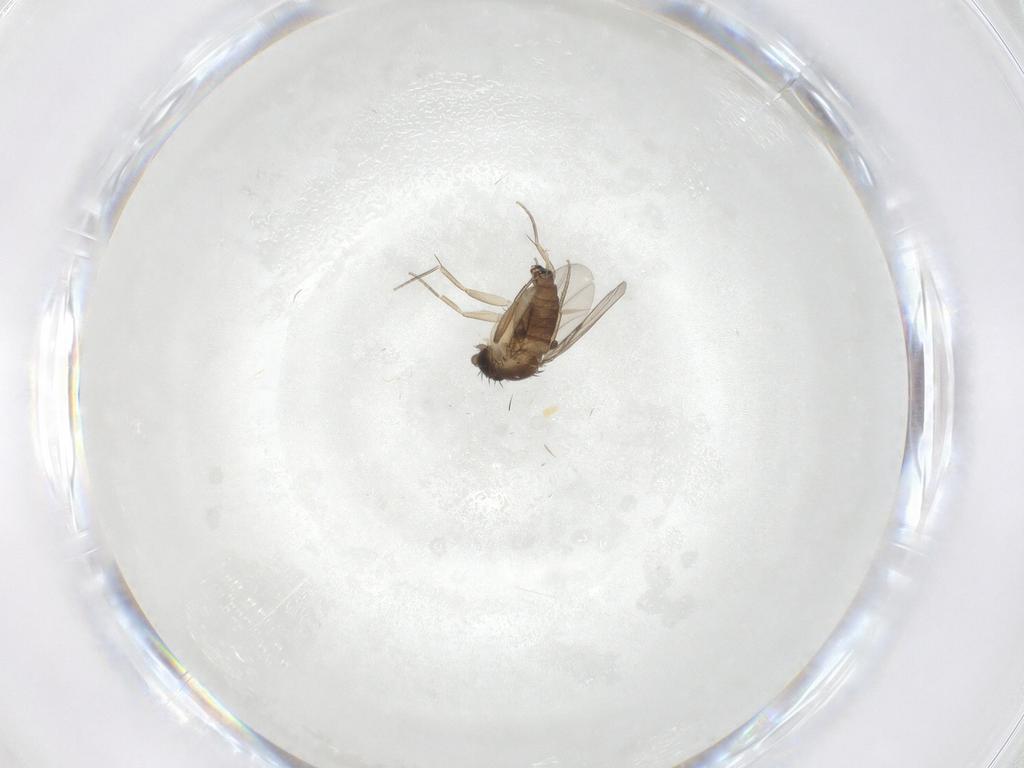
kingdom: Animalia
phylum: Arthropoda
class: Insecta
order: Diptera
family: Phoridae
